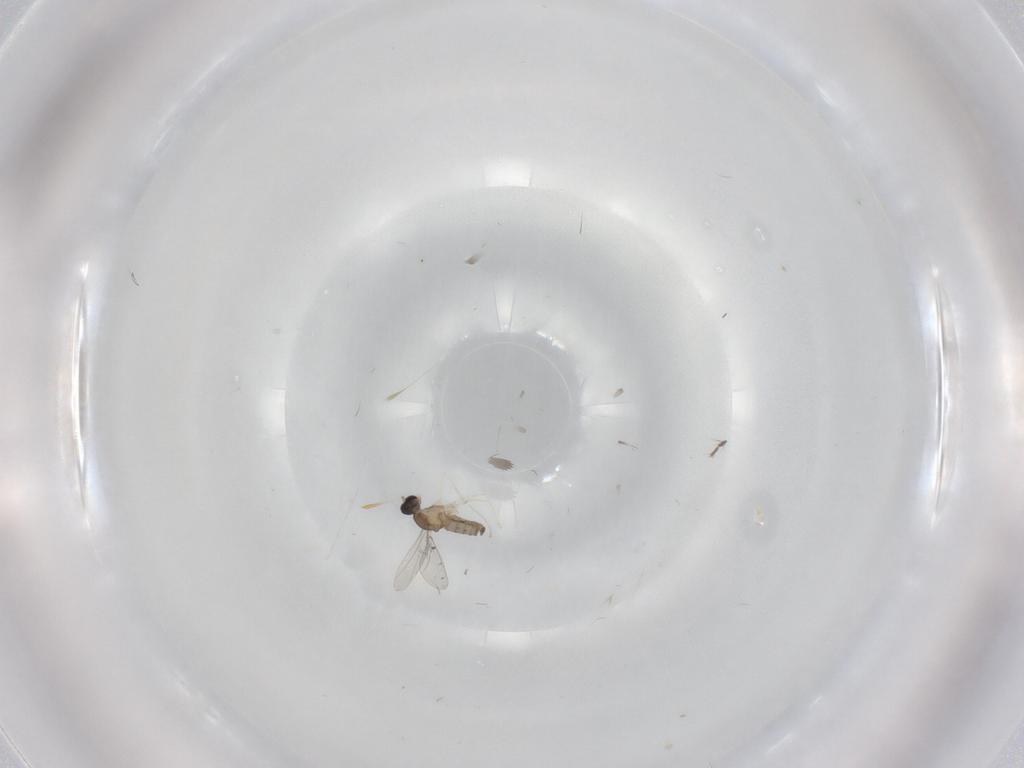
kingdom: Animalia
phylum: Arthropoda
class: Insecta
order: Diptera
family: Cecidomyiidae
